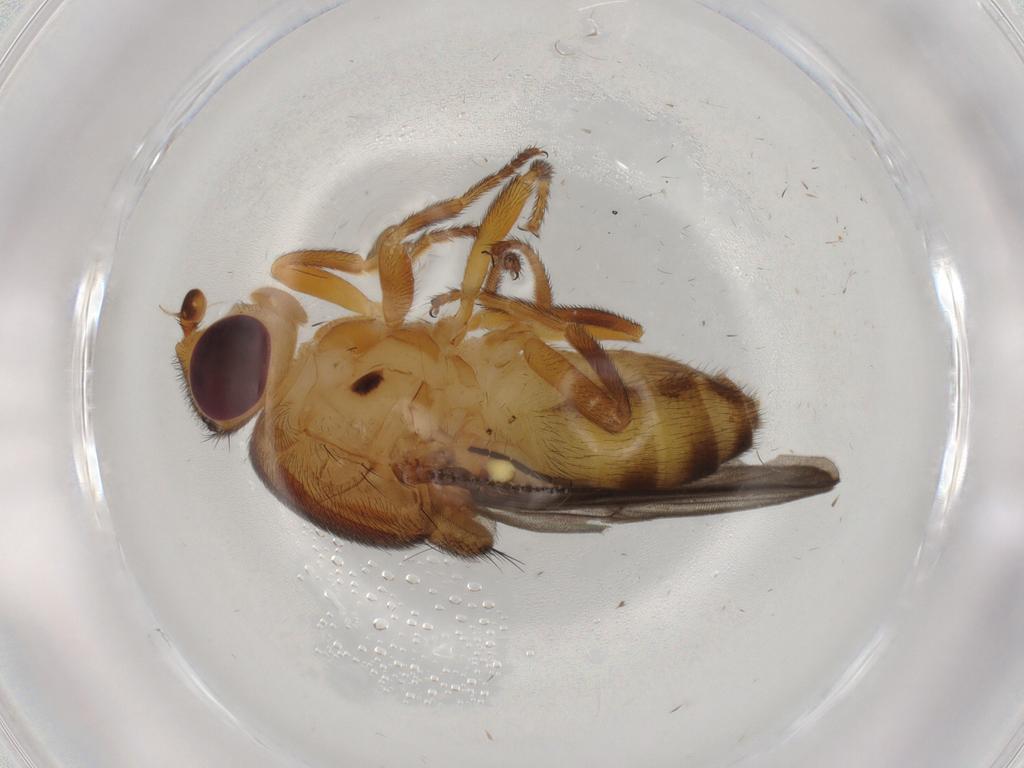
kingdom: Animalia
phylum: Arthropoda
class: Insecta
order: Diptera
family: Chloropidae
